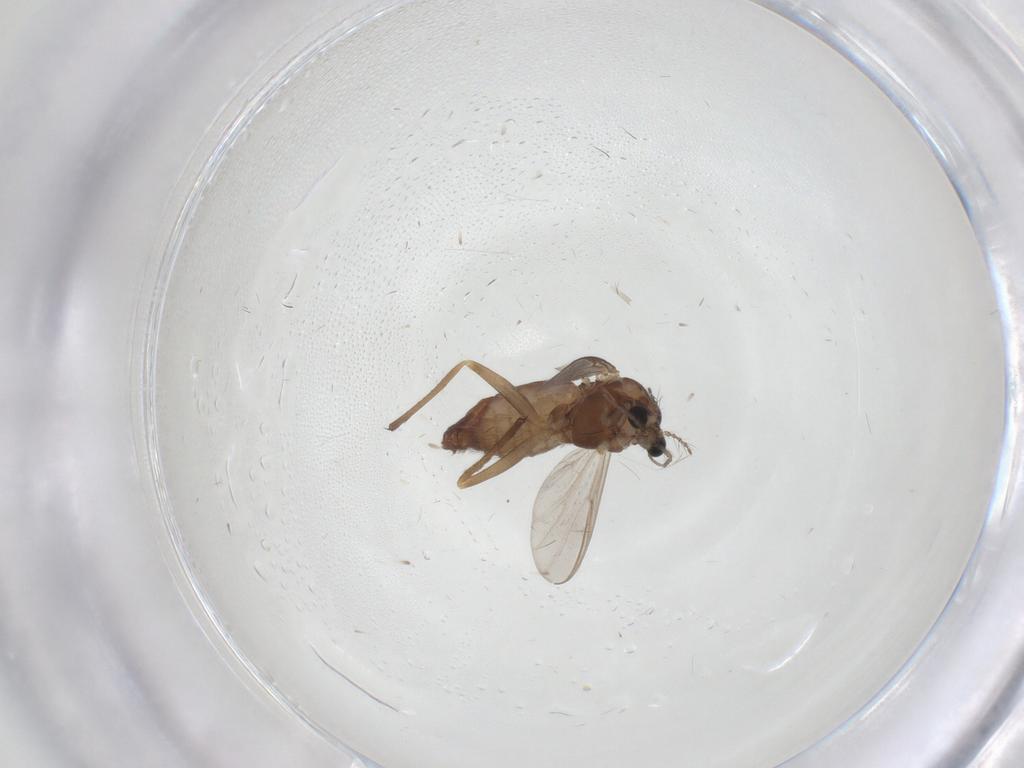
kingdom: Animalia
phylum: Arthropoda
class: Insecta
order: Diptera
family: Chironomidae
